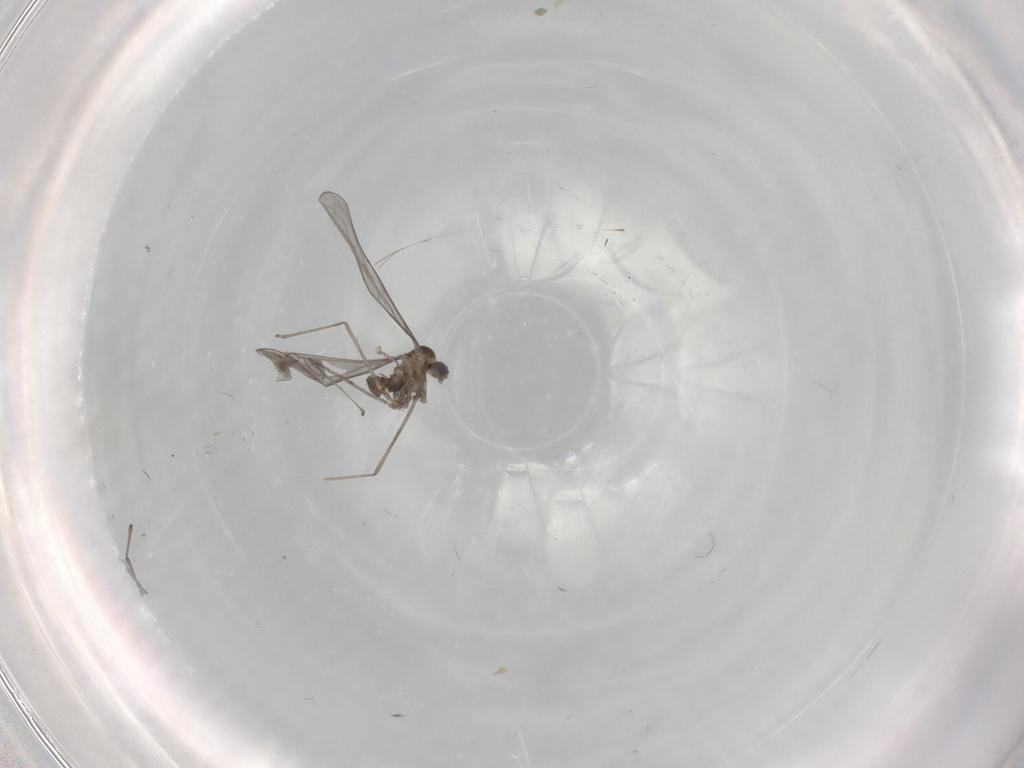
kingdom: Animalia
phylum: Arthropoda
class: Insecta
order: Diptera
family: Cecidomyiidae
